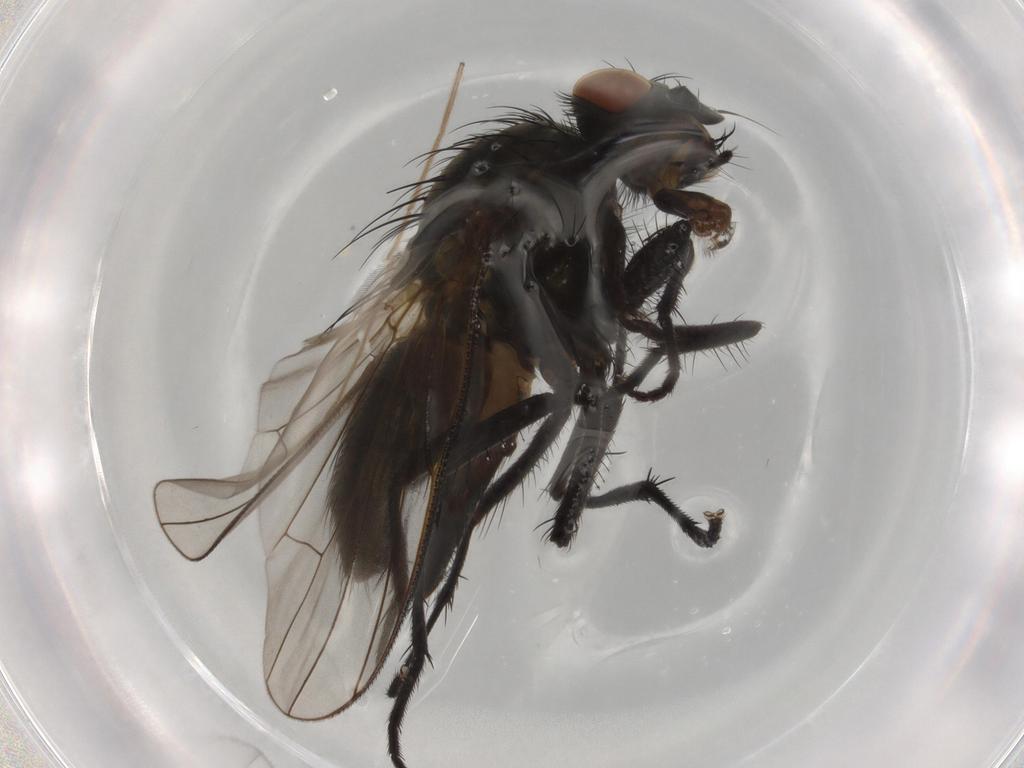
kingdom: Animalia
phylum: Arthropoda
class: Insecta
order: Diptera
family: Anthomyiidae
